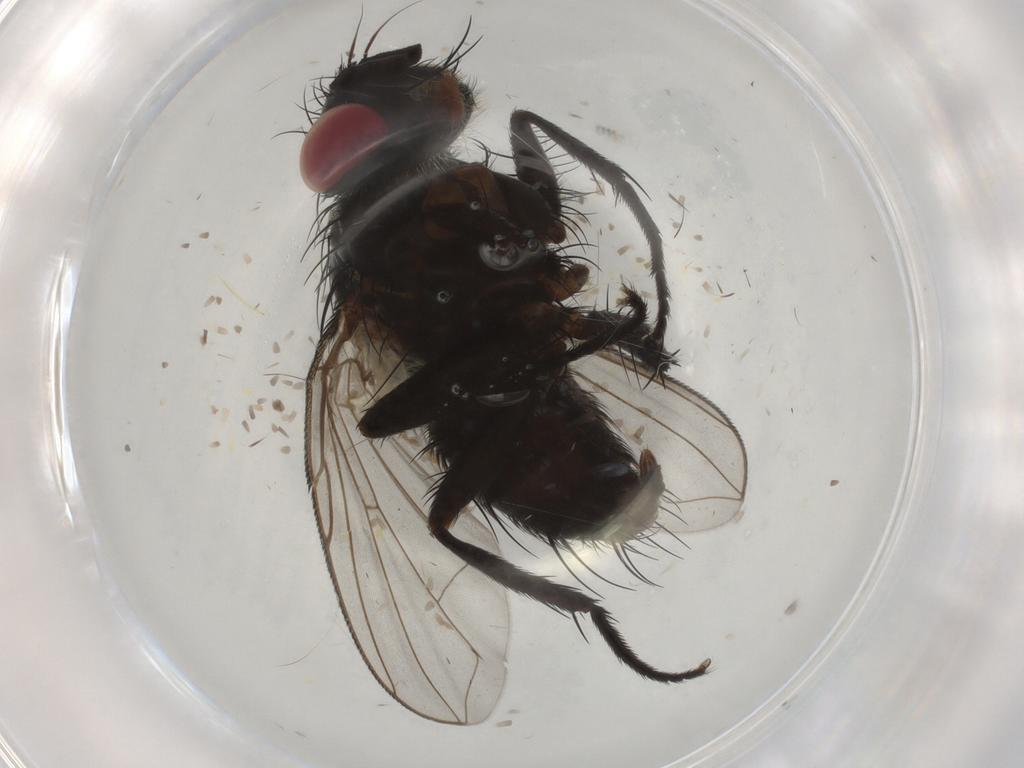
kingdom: Animalia
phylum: Arthropoda
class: Insecta
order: Diptera
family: Tachinidae
